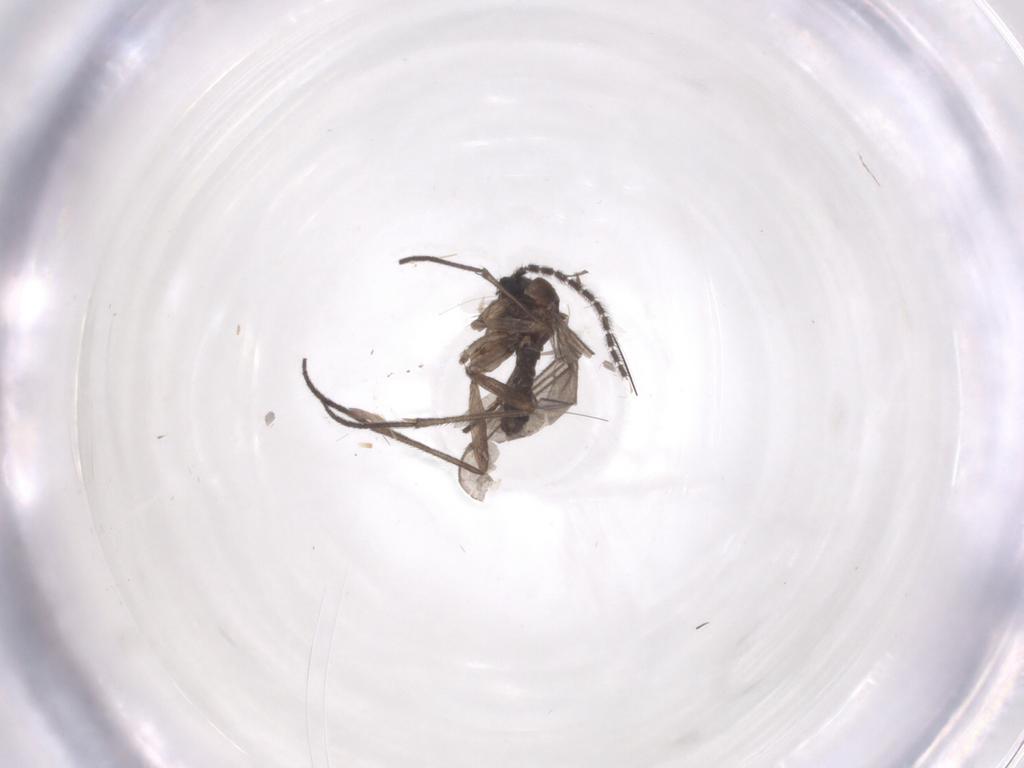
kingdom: Animalia
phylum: Arthropoda
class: Insecta
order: Diptera
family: Sciaridae
